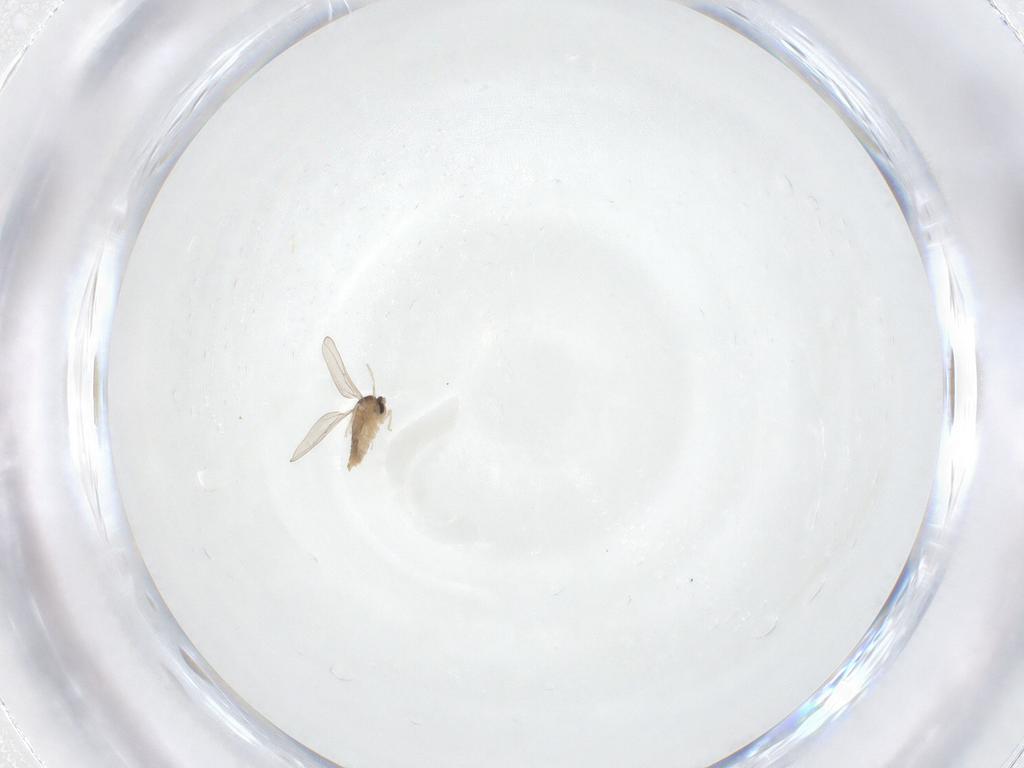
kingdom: Animalia
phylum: Arthropoda
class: Insecta
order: Diptera
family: Cecidomyiidae
